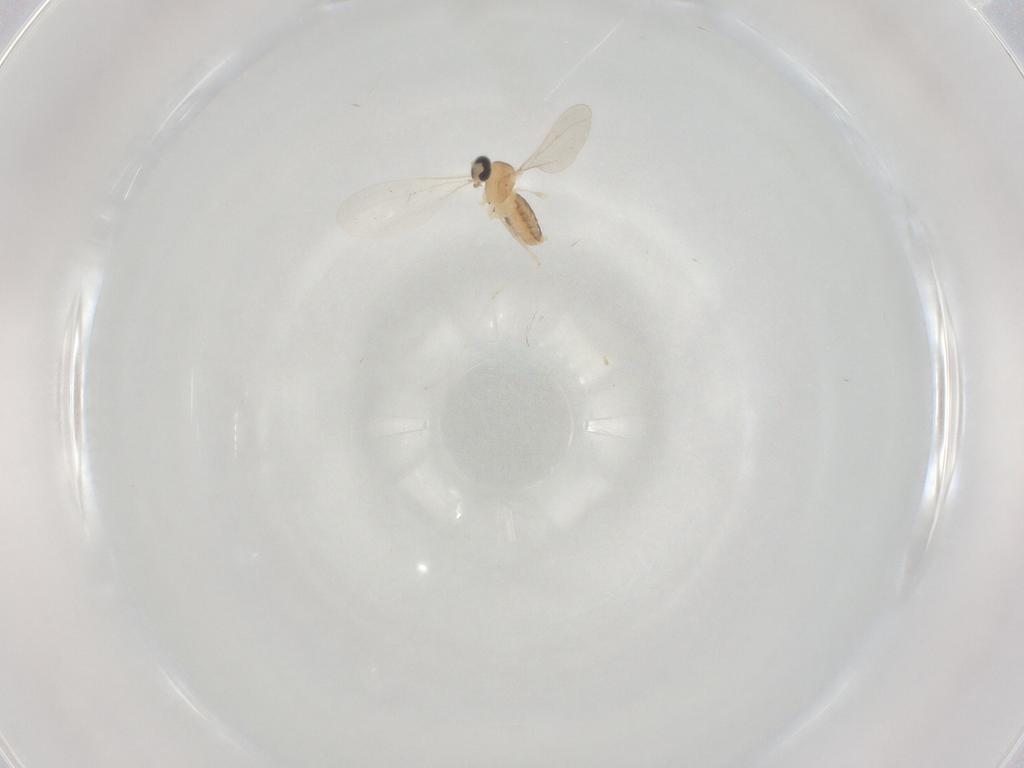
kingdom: Animalia
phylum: Arthropoda
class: Insecta
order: Diptera
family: Cecidomyiidae
